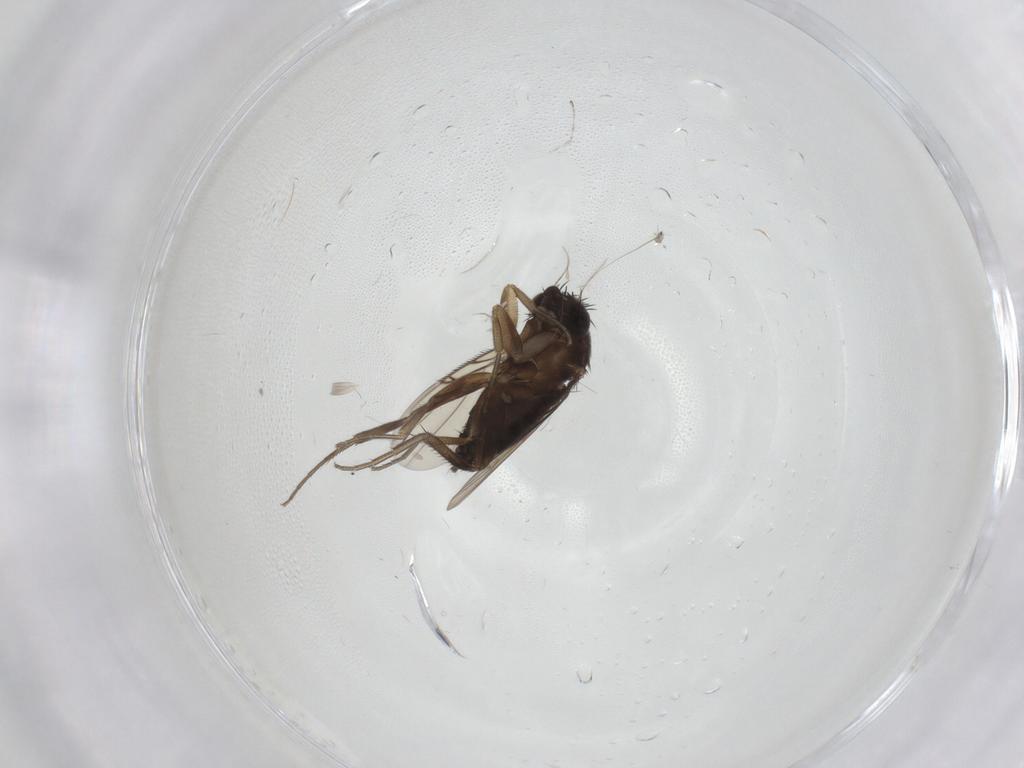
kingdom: Animalia
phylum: Arthropoda
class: Insecta
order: Diptera
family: Phoridae
